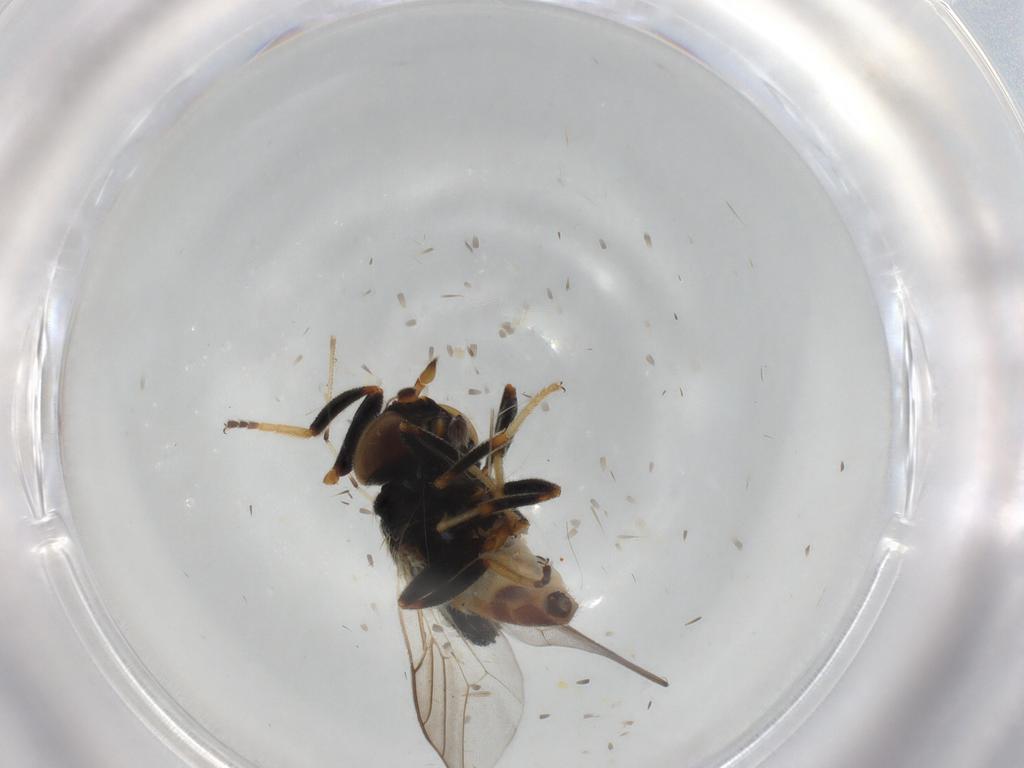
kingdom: Animalia
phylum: Arthropoda
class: Insecta
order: Diptera
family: Chloropidae
